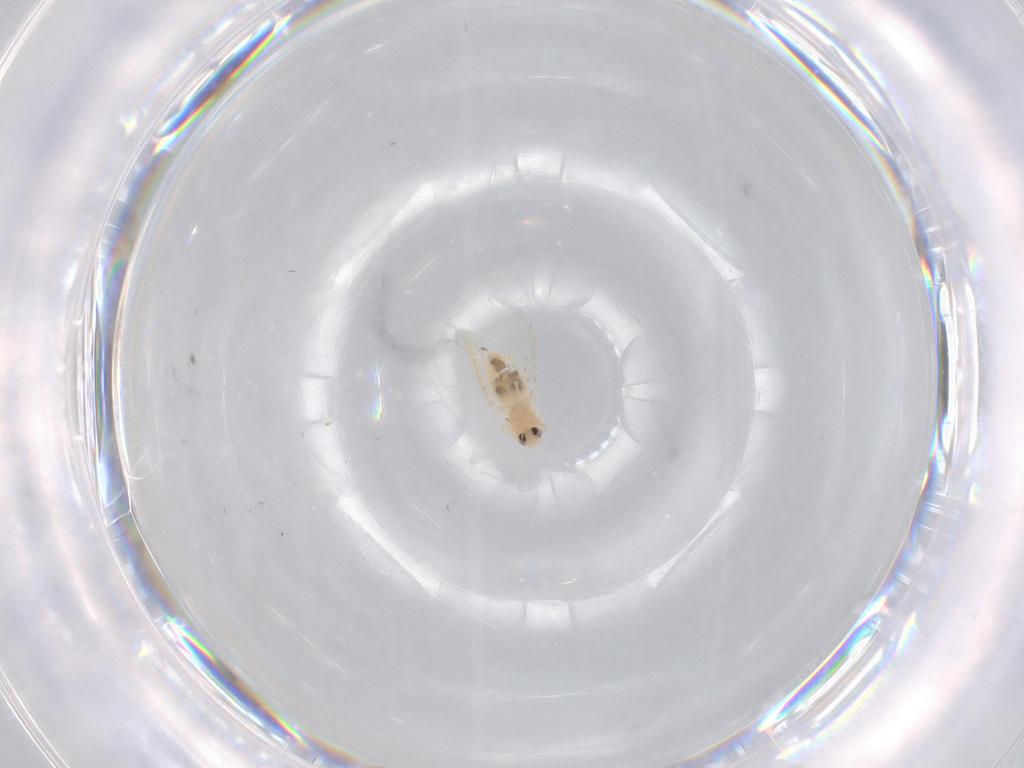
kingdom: Animalia
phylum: Arthropoda
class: Insecta
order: Hemiptera
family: Aleyrodidae
